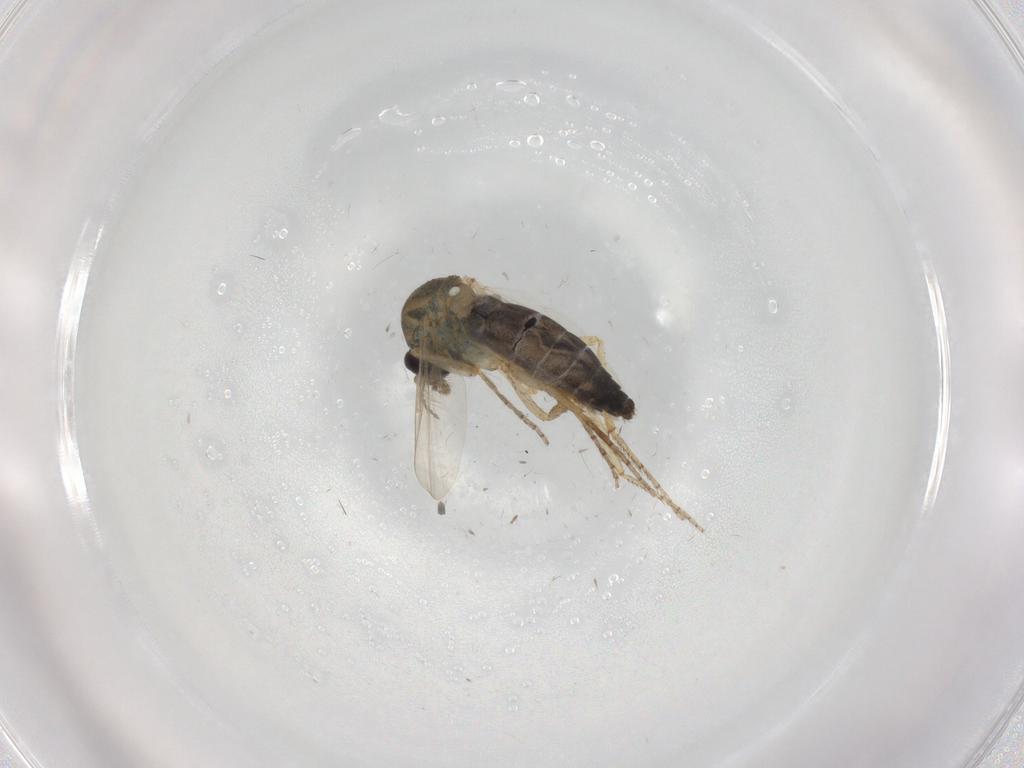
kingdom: Animalia
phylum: Arthropoda
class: Insecta
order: Diptera
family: Ceratopogonidae
